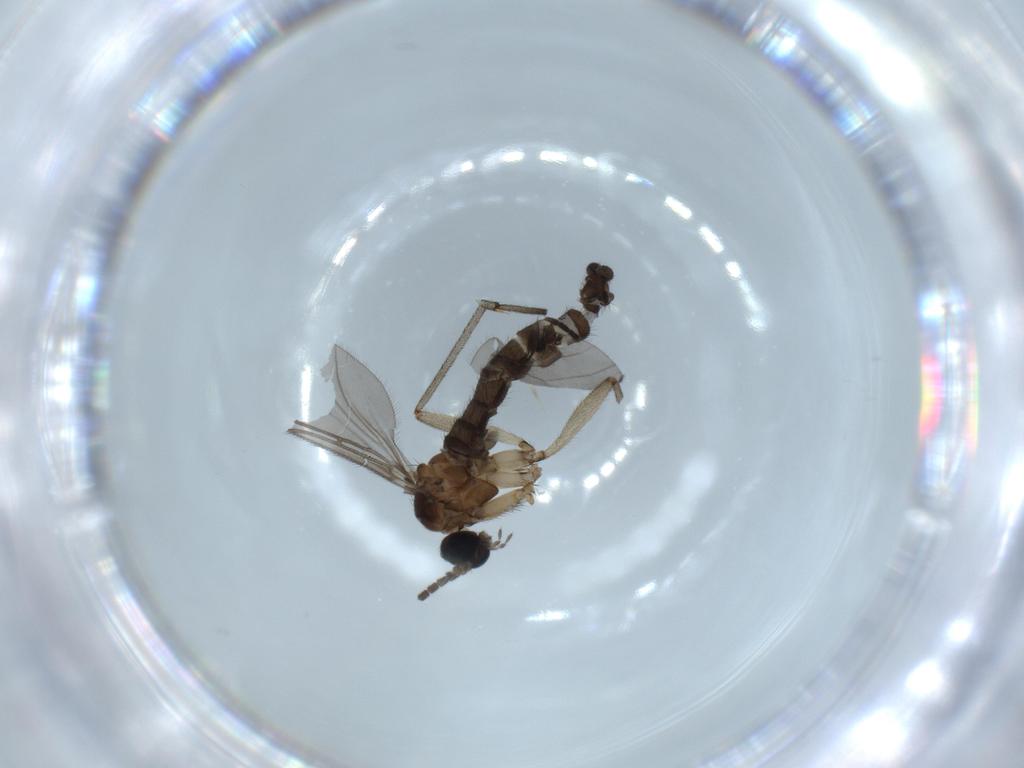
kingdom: Animalia
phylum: Arthropoda
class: Insecta
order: Diptera
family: Sciaridae
